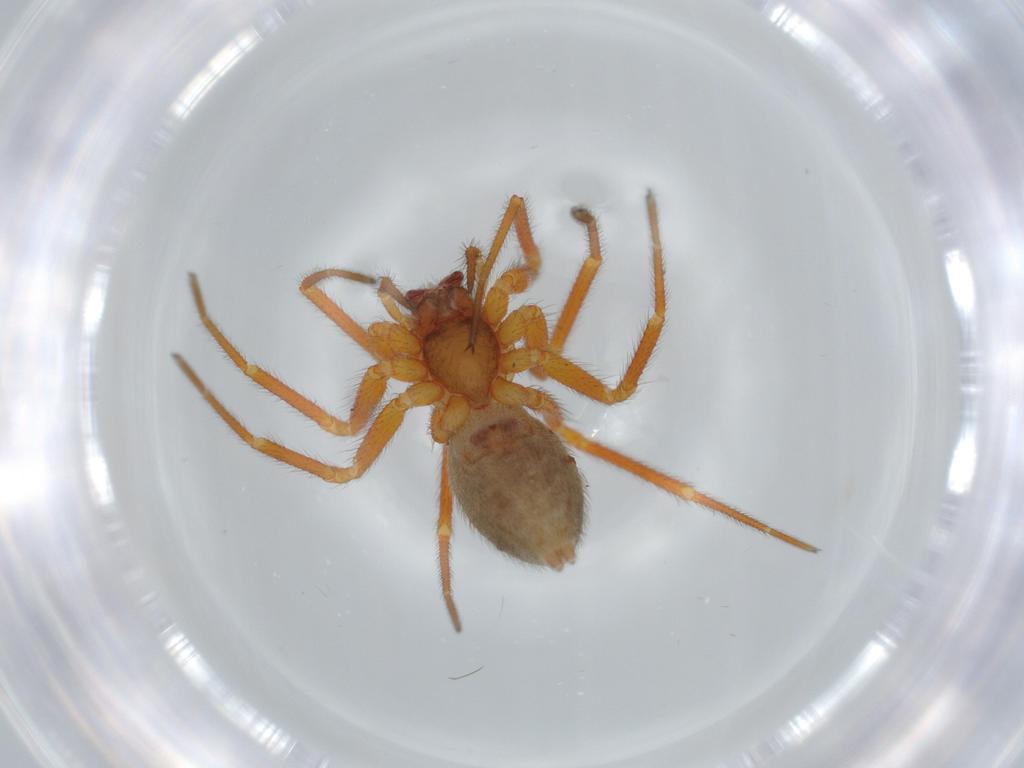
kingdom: Animalia
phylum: Arthropoda
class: Arachnida
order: Araneae
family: Linyphiidae
